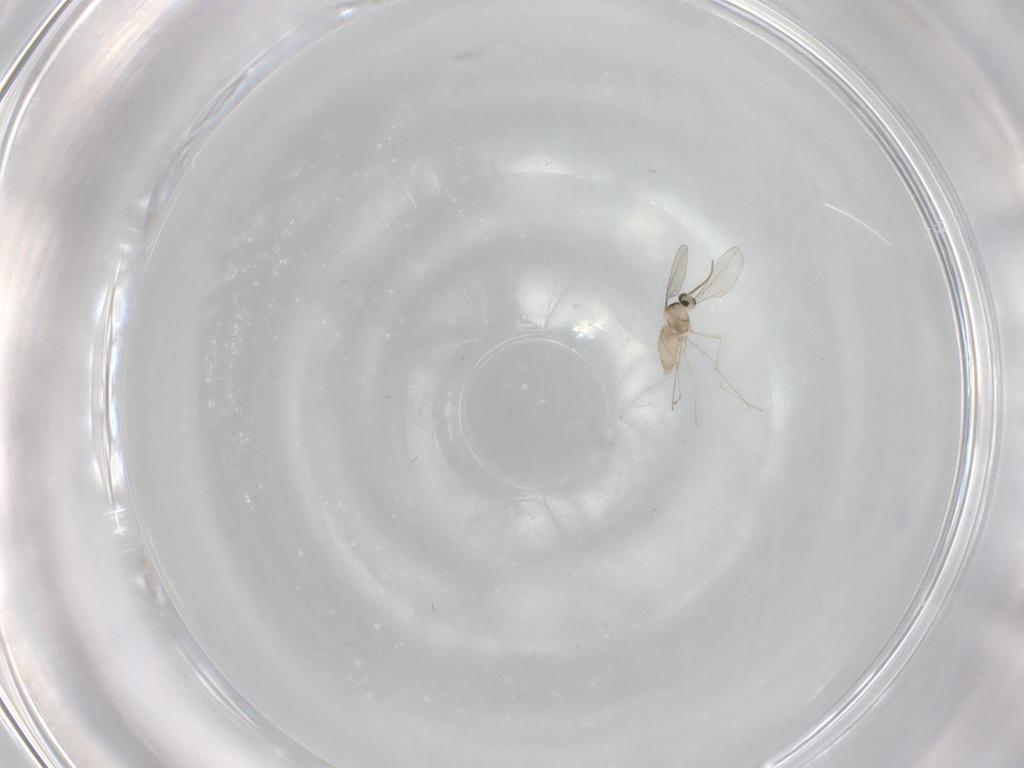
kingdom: Animalia
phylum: Arthropoda
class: Insecta
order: Diptera
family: Cecidomyiidae
